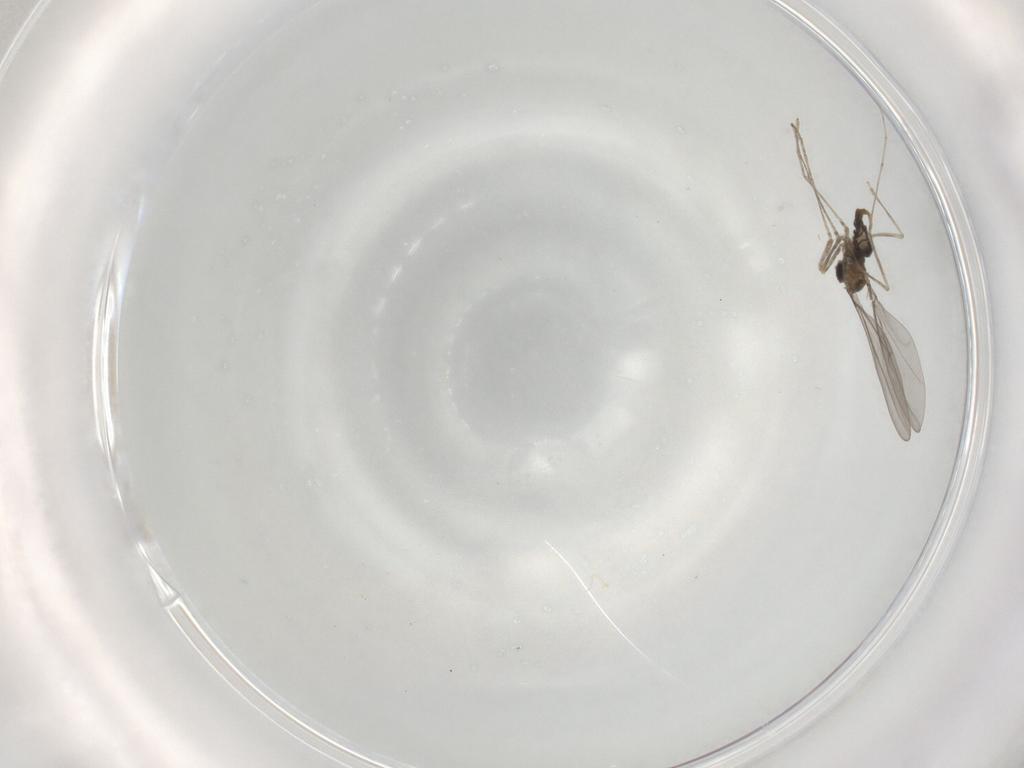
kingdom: Animalia
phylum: Arthropoda
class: Insecta
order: Diptera
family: Cecidomyiidae
